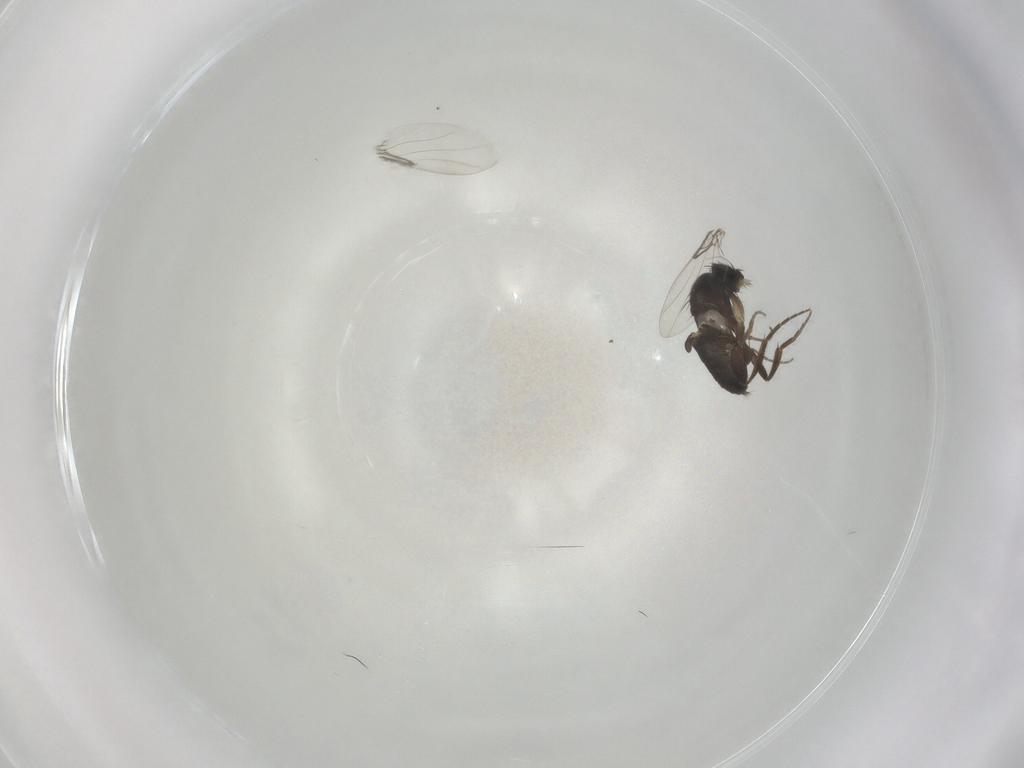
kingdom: Animalia
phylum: Arthropoda
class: Insecta
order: Diptera
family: Phoridae
